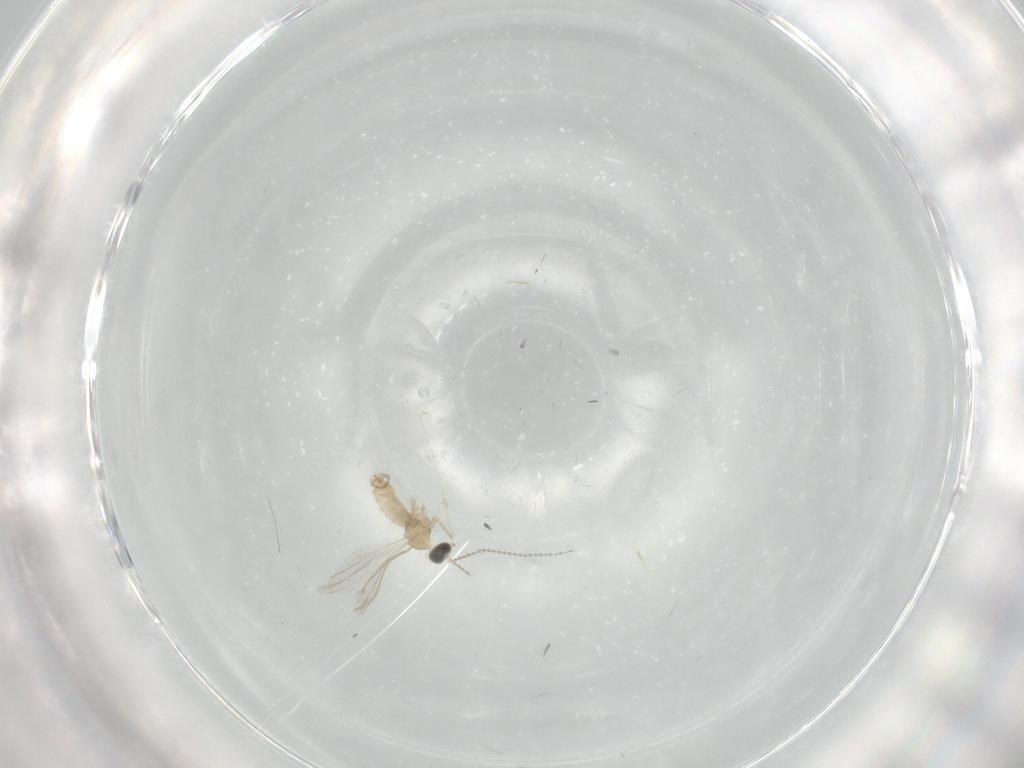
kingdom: Animalia
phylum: Arthropoda
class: Insecta
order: Diptera
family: Cecidomyiidae
